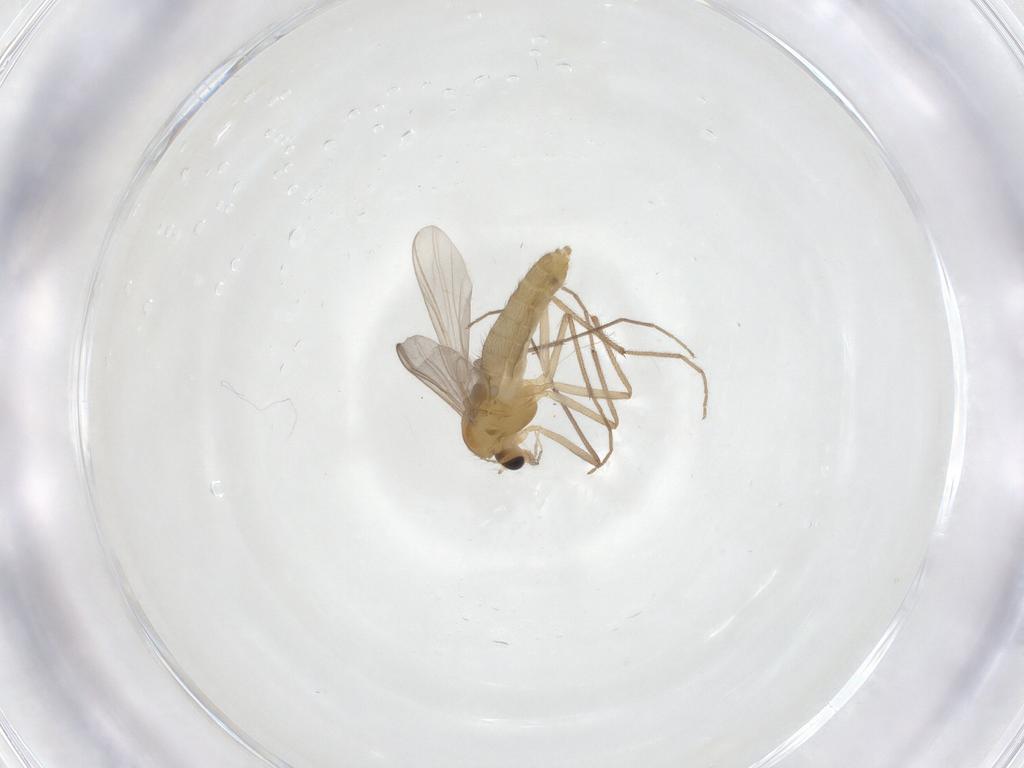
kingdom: Animalia
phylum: Arthropoda
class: Insecta
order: Diptera
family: Chironomidae
